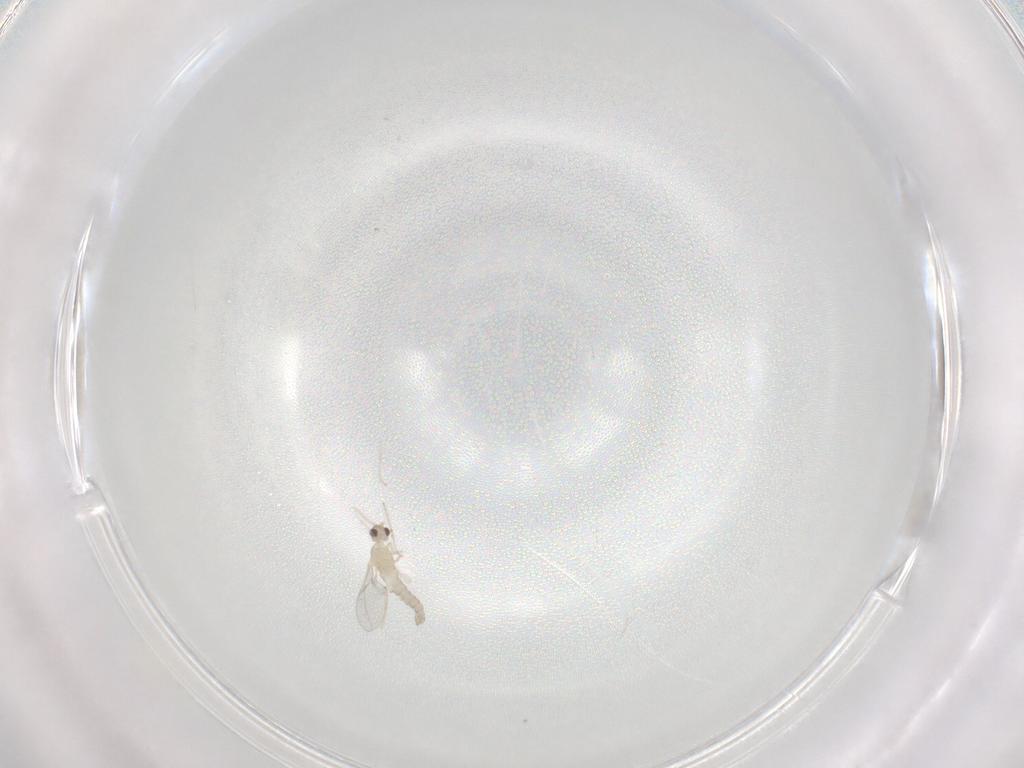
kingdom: Animalia
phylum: Arthropoda
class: Insecta
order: Diptera
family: Cecidomyiidae
